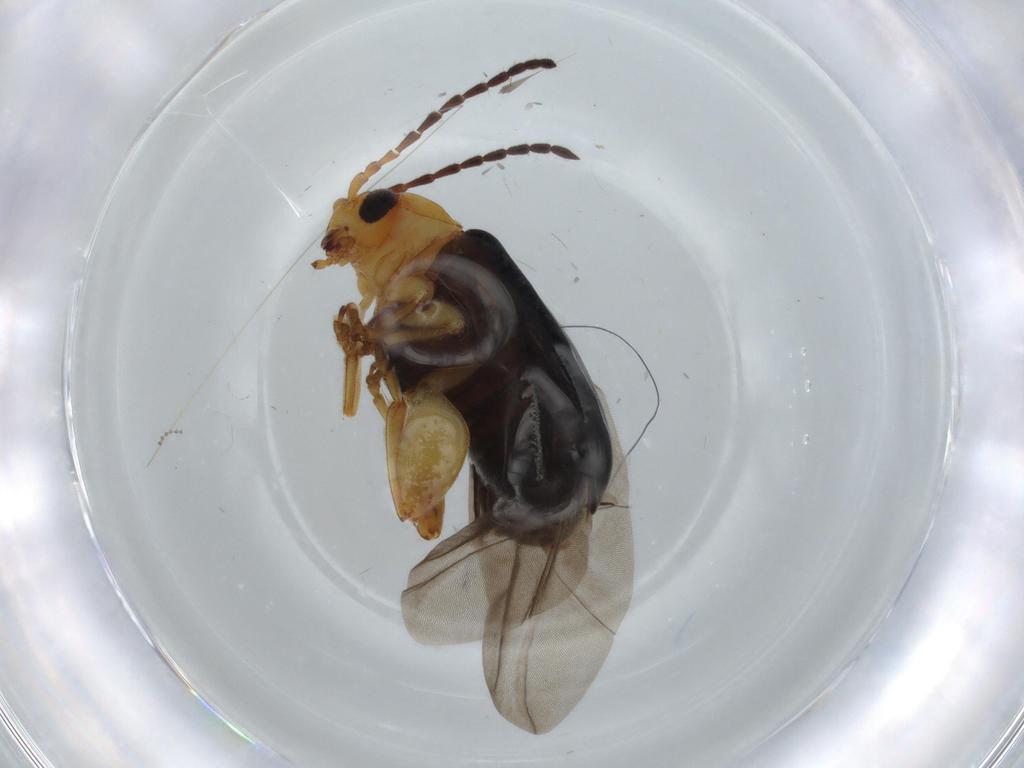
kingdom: Animalia
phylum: Arthropoda
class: Insecta
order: Coleoptera
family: Chrysomelidae
